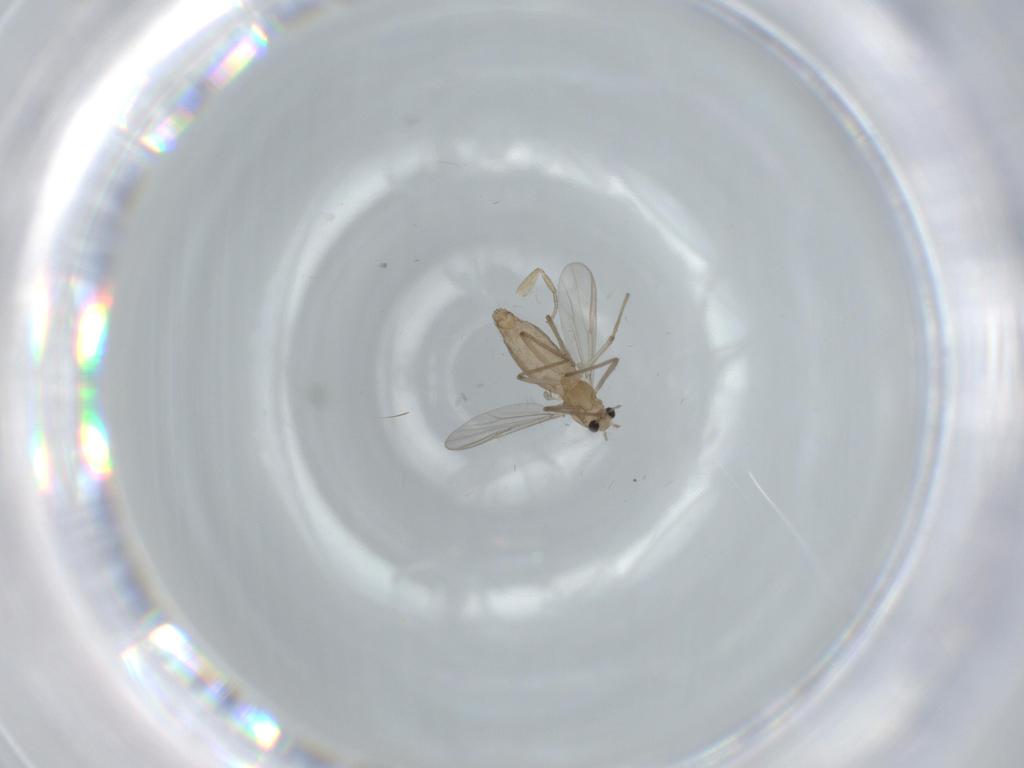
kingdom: Animalia
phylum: Arthropoda
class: Insecta
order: Diptera
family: Chironomidae
